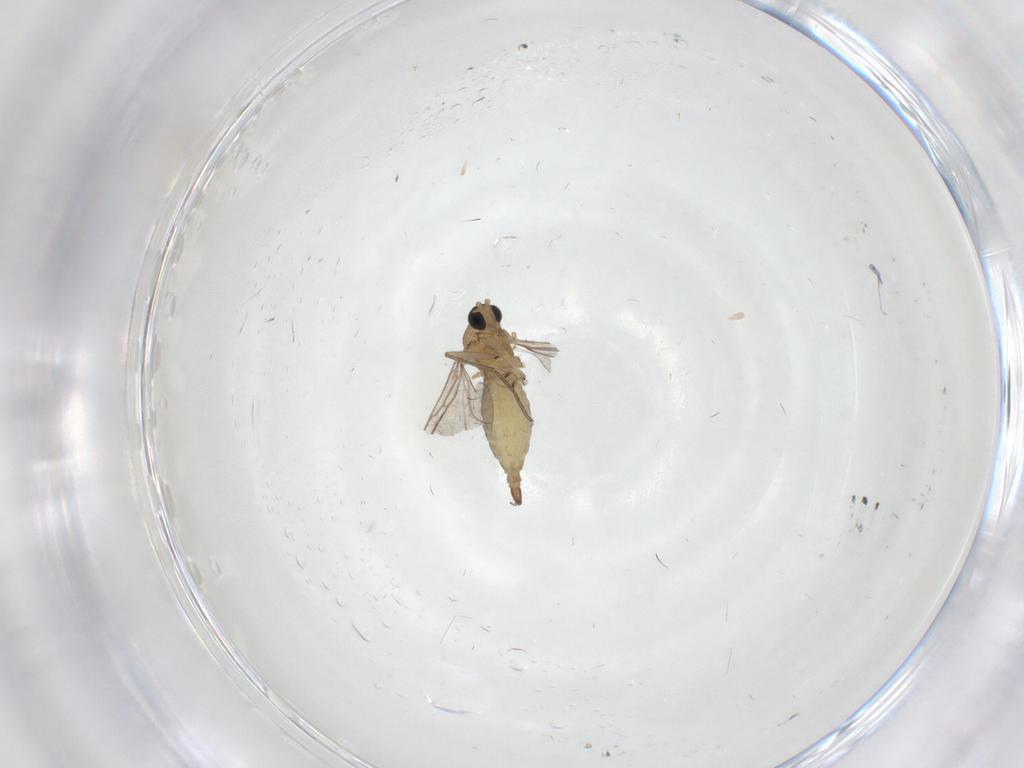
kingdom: Animalia
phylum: Arthropoda
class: Insecta
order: Diptera
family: Sciaridae
